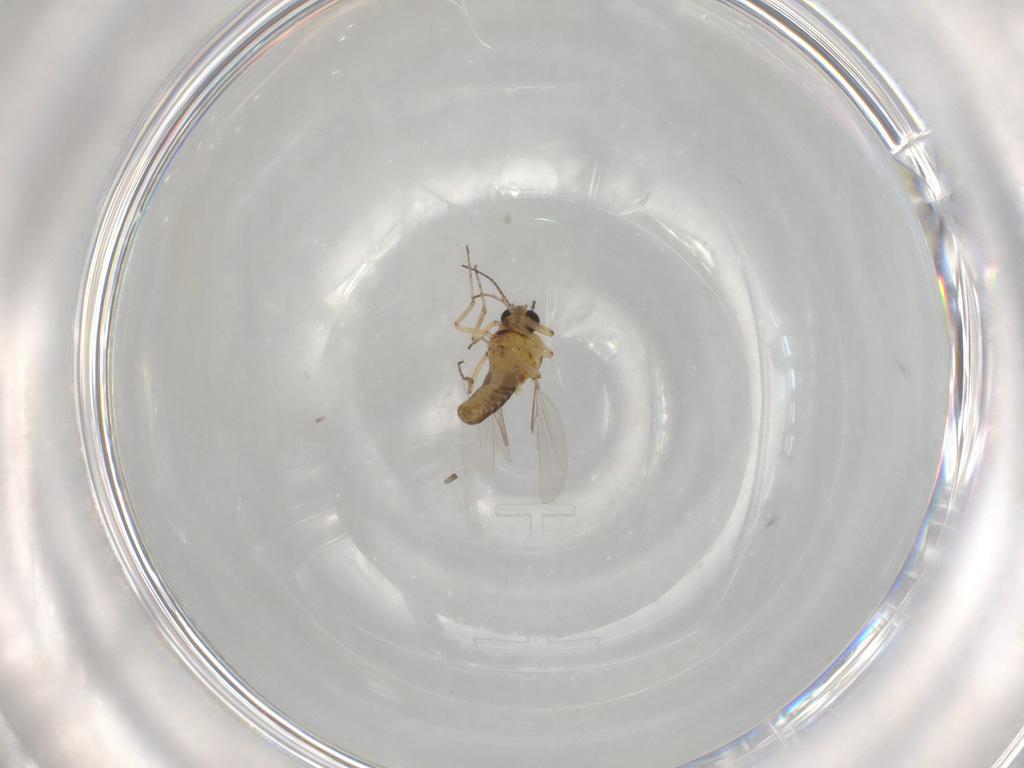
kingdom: Animalia
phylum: Arthropoda
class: Insecta
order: Diptera
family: Ceratopogonidae
